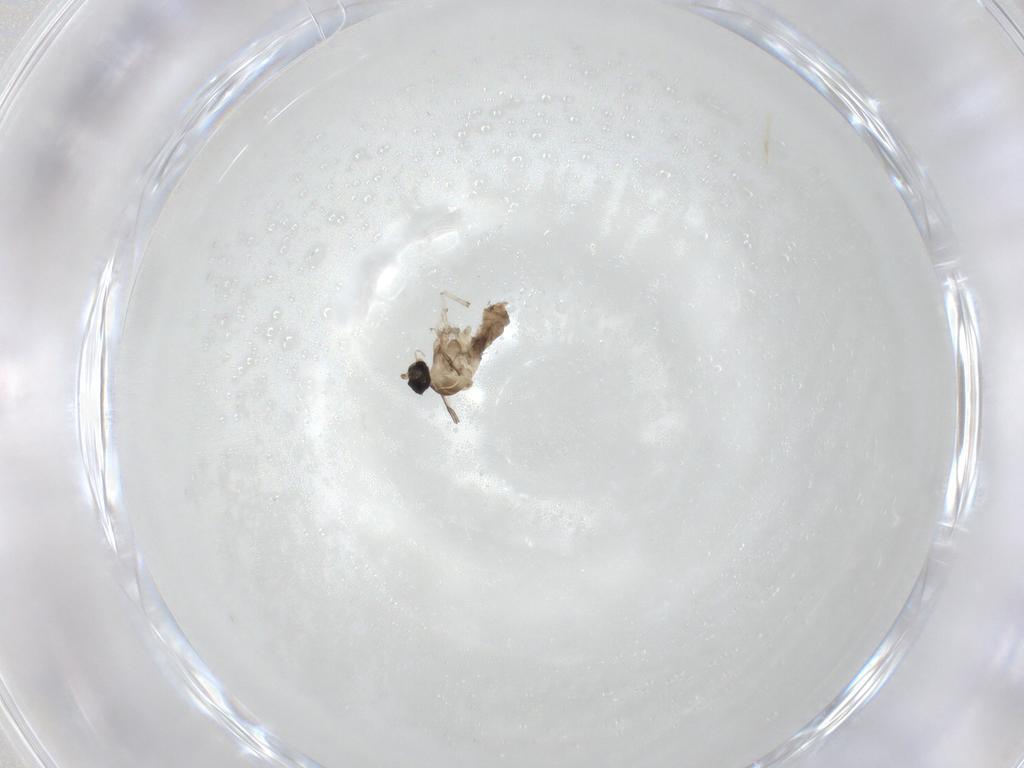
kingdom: Animalia
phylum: Arthropoda
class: Insecta
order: Diptera
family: Cecidomyiidae
